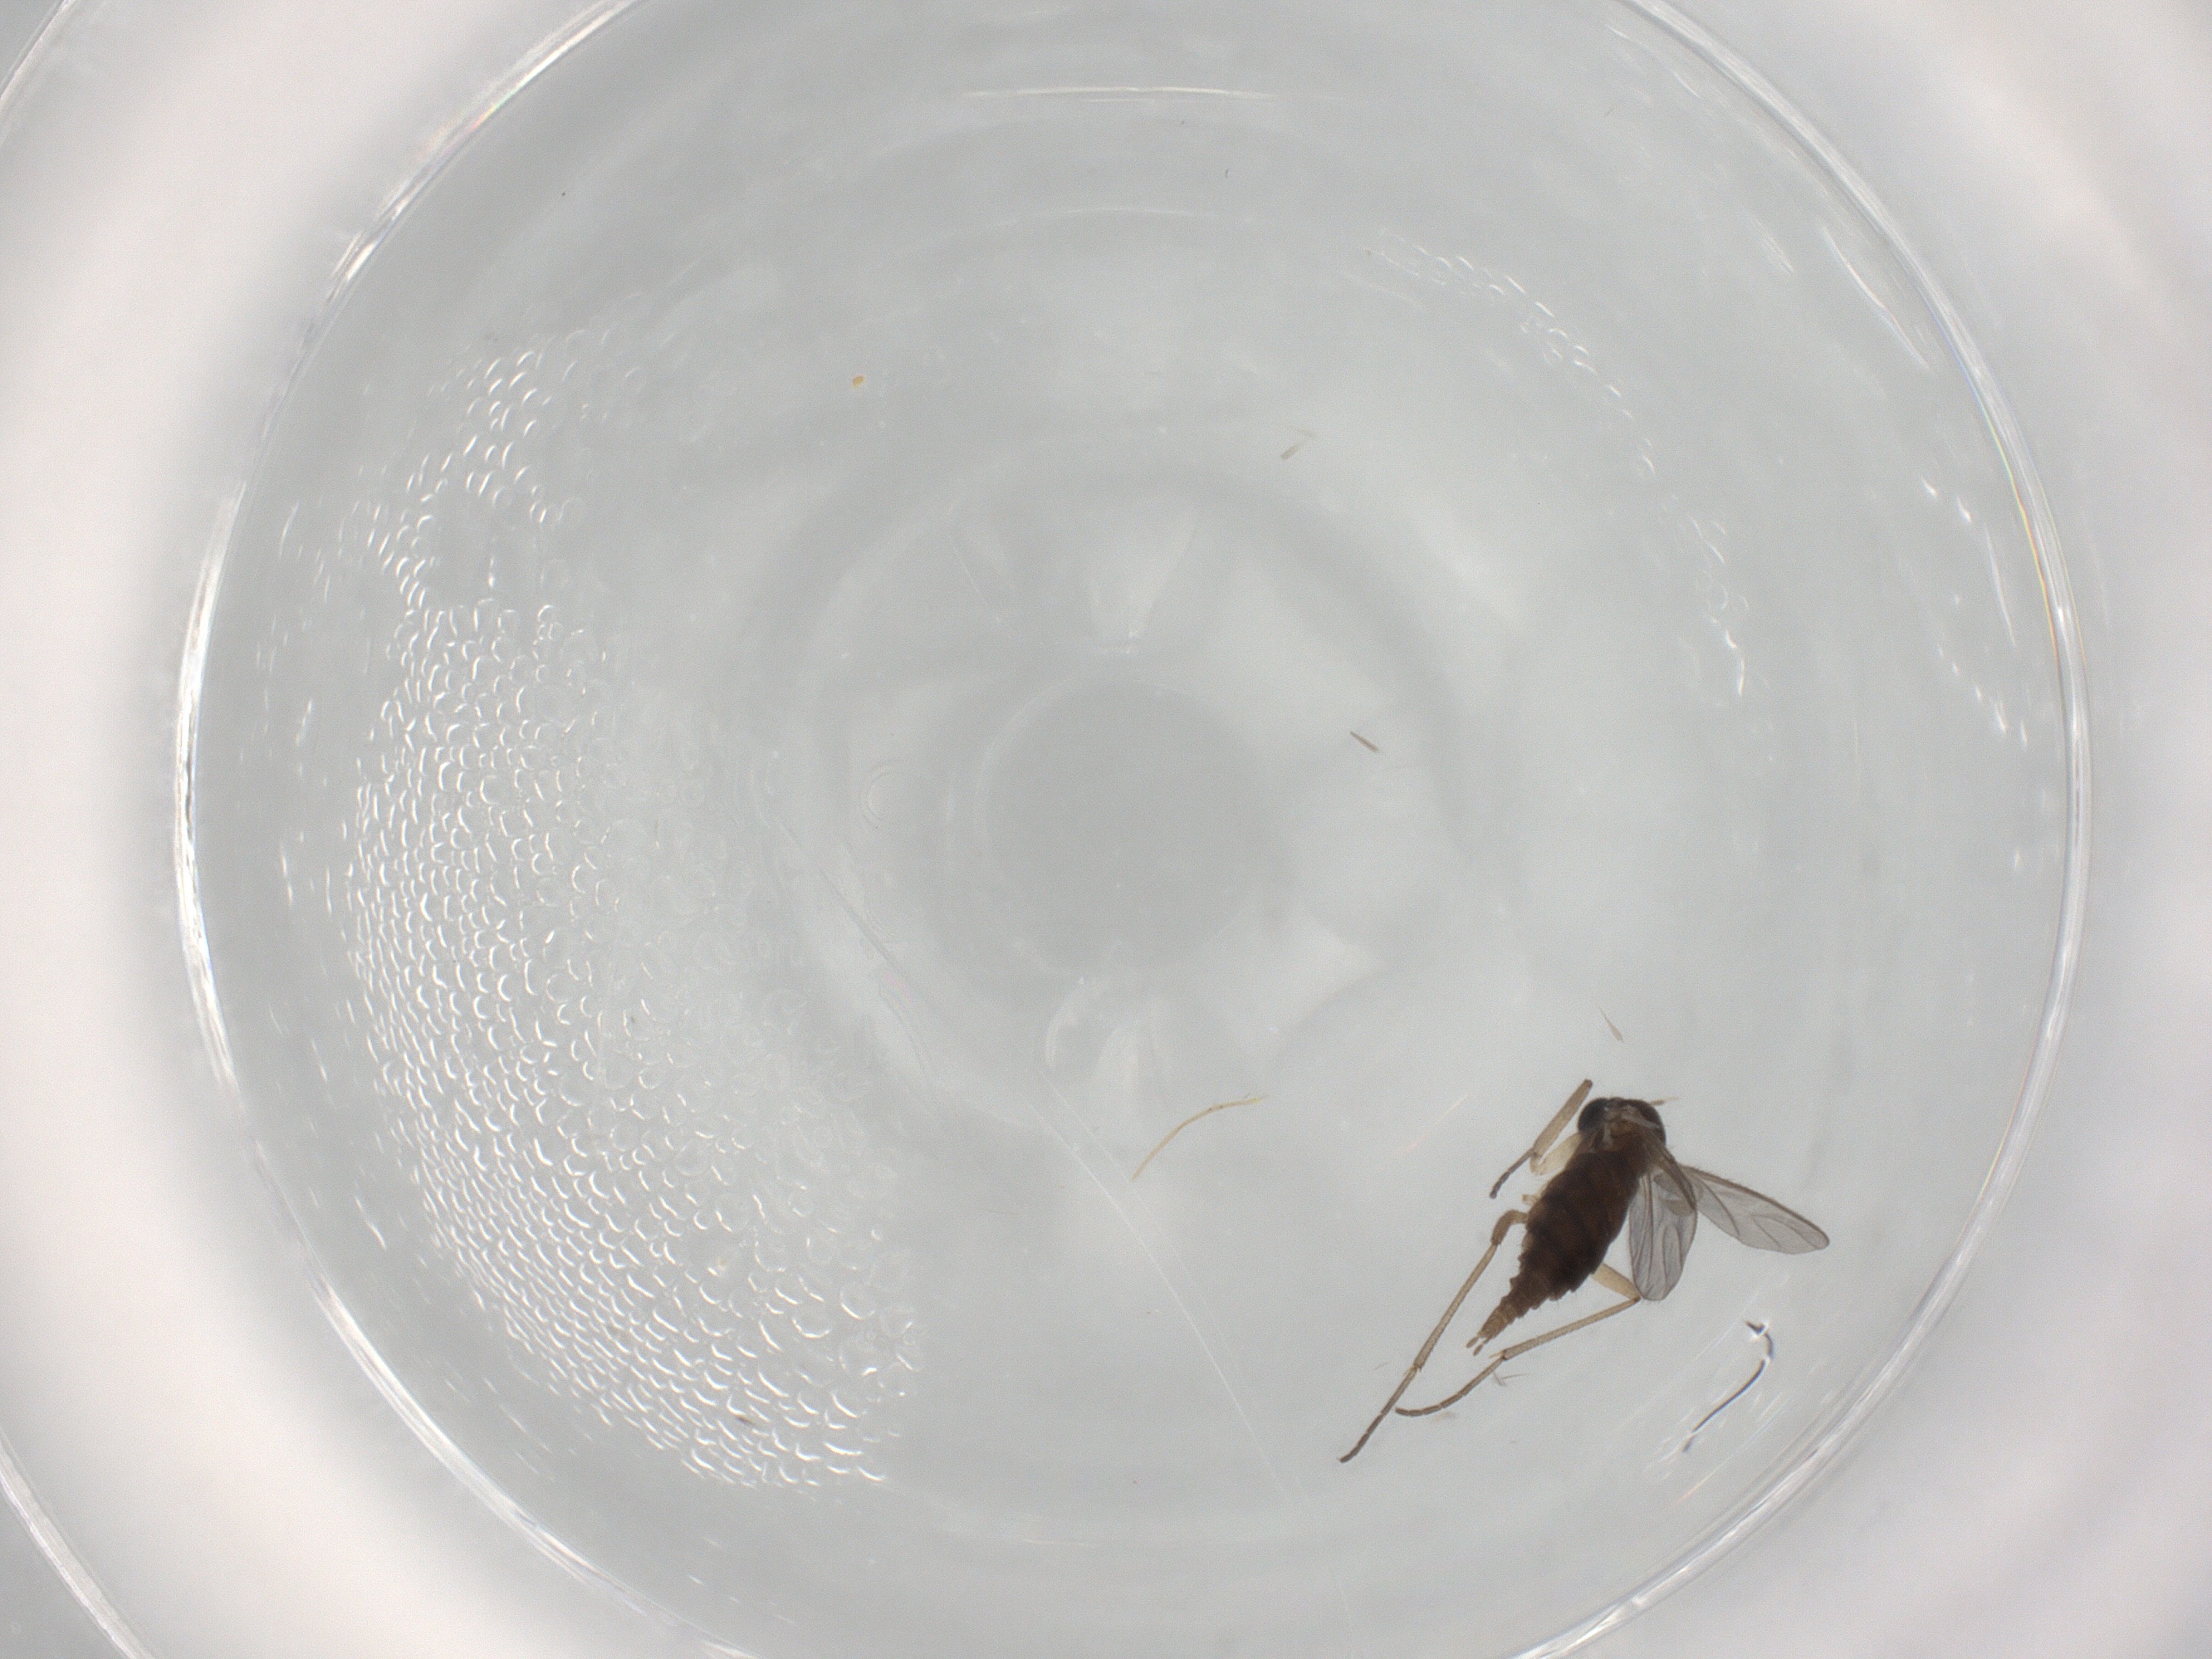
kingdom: Animalia
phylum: Arthropoda
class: Insecta
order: Diptera
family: Sciaridae
